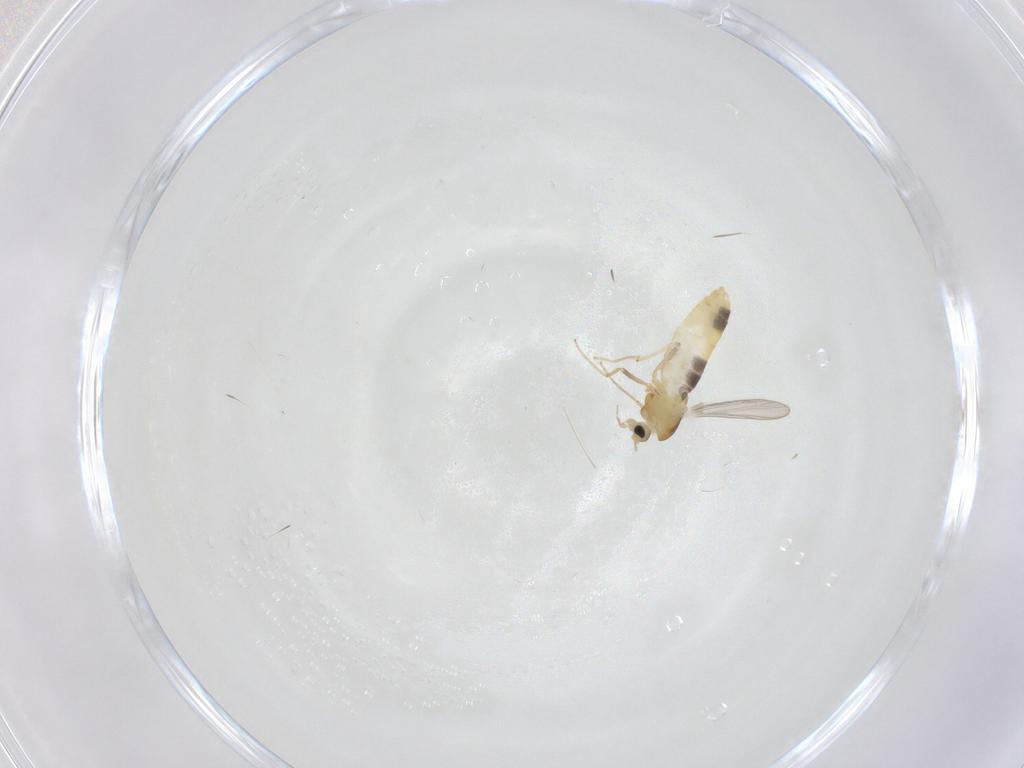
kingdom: Animalia
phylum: Arthropoda
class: Insecta
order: Diptera
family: Chironomidae
